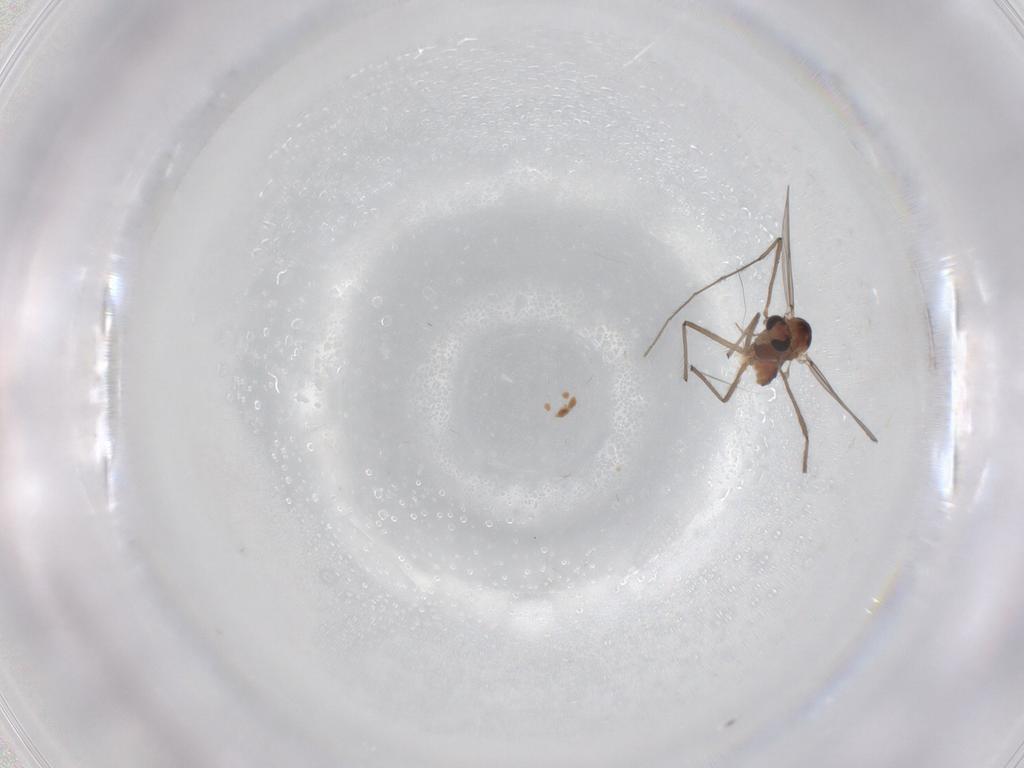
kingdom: Animalia
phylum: Arthropoda
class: Insecta
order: Diptera
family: Chironomidae
